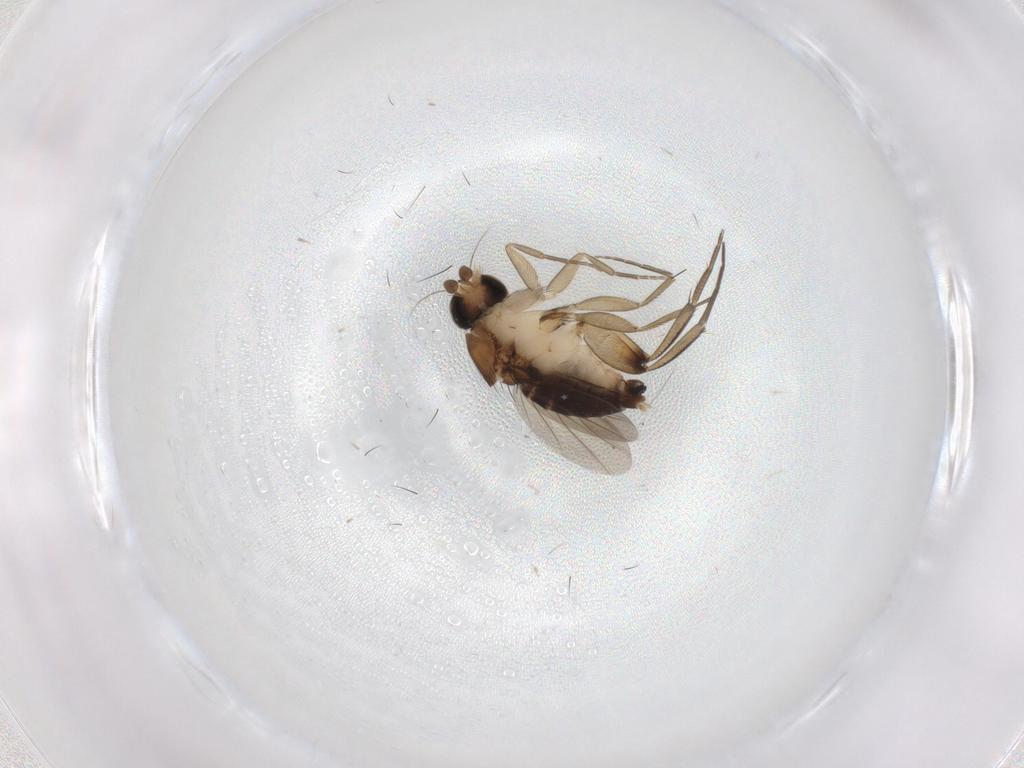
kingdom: Animalia
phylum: Arthropoda
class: Insecta
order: Diptera
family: Phoridae
